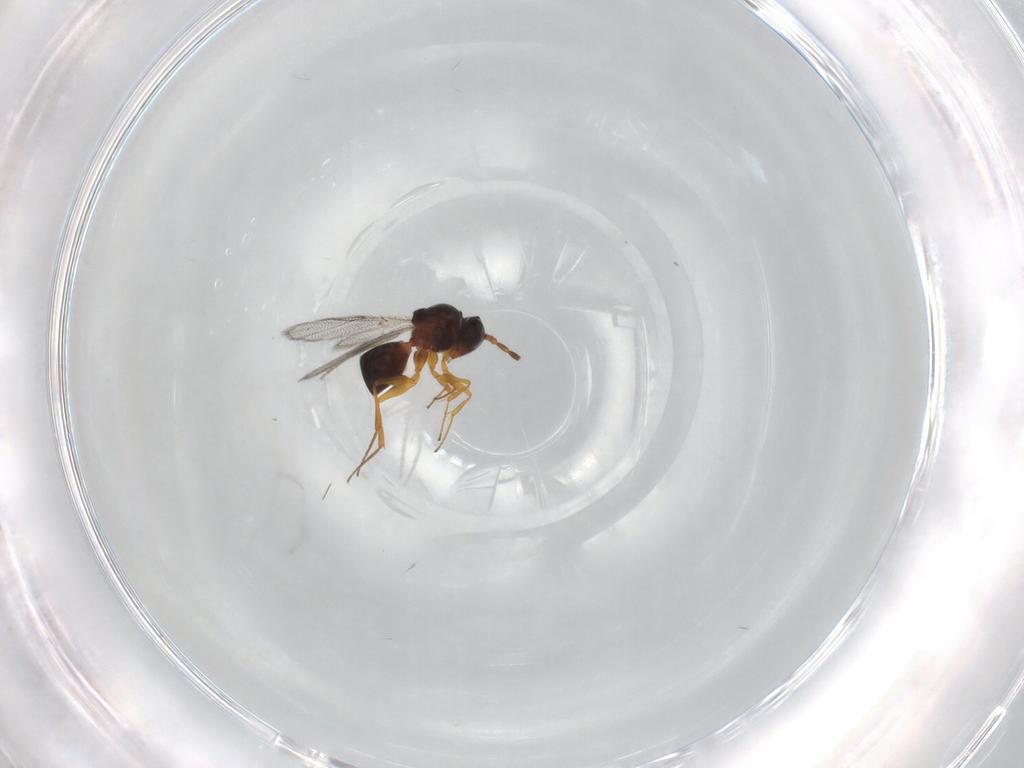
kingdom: Animalia
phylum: Arthropoda
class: Insecta
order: Hymenoptera
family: Figitidae
